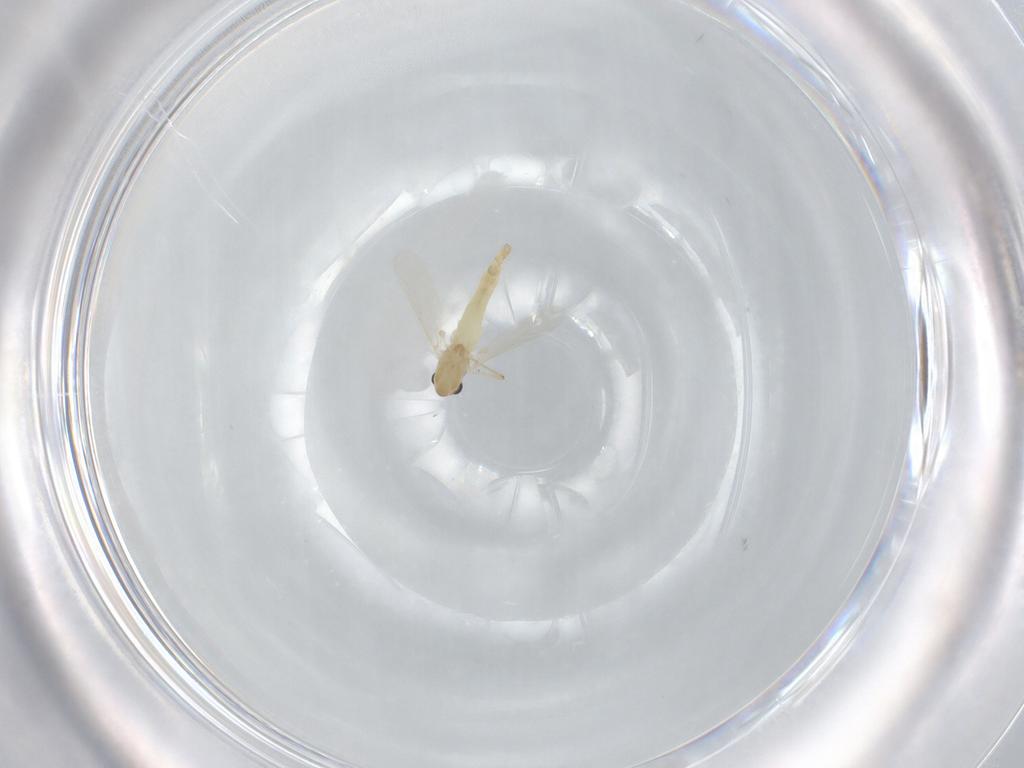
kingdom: Animalia
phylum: Arthropoda
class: Insecta
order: Diptera
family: Chironomidae
